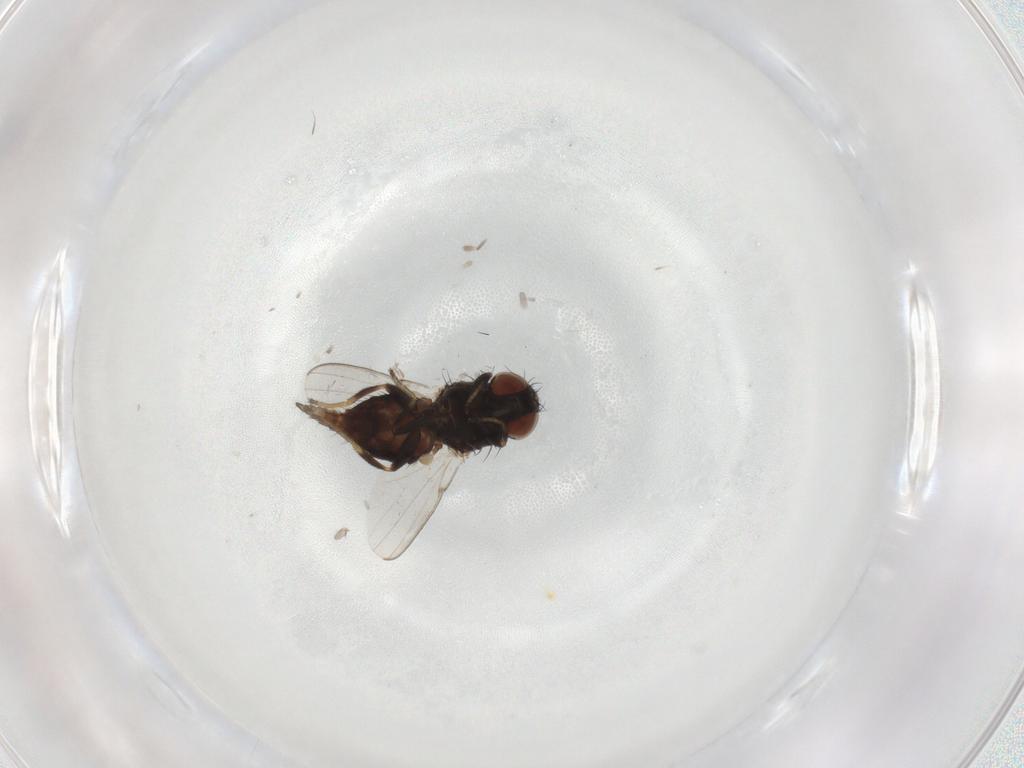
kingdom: Animalia
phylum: Arthropoda
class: Insecta
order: Diptera
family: Milichiidae
